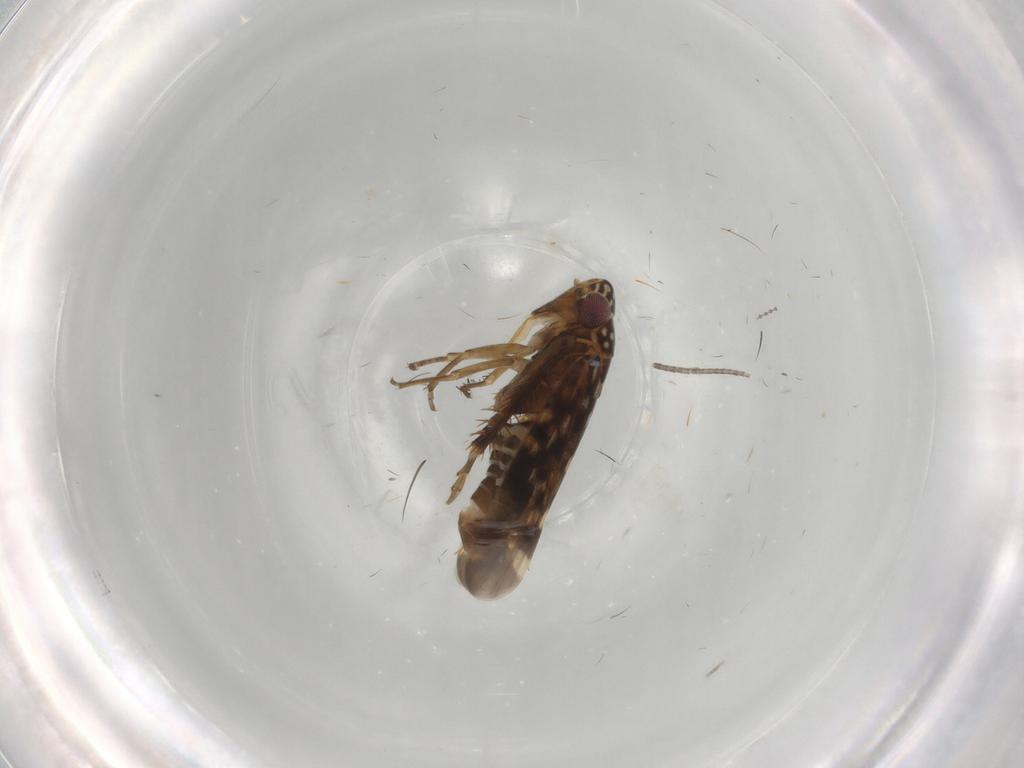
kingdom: Animalia
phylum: Arthropoda
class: Insecta
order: Hemiptera
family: Cicadellidae
